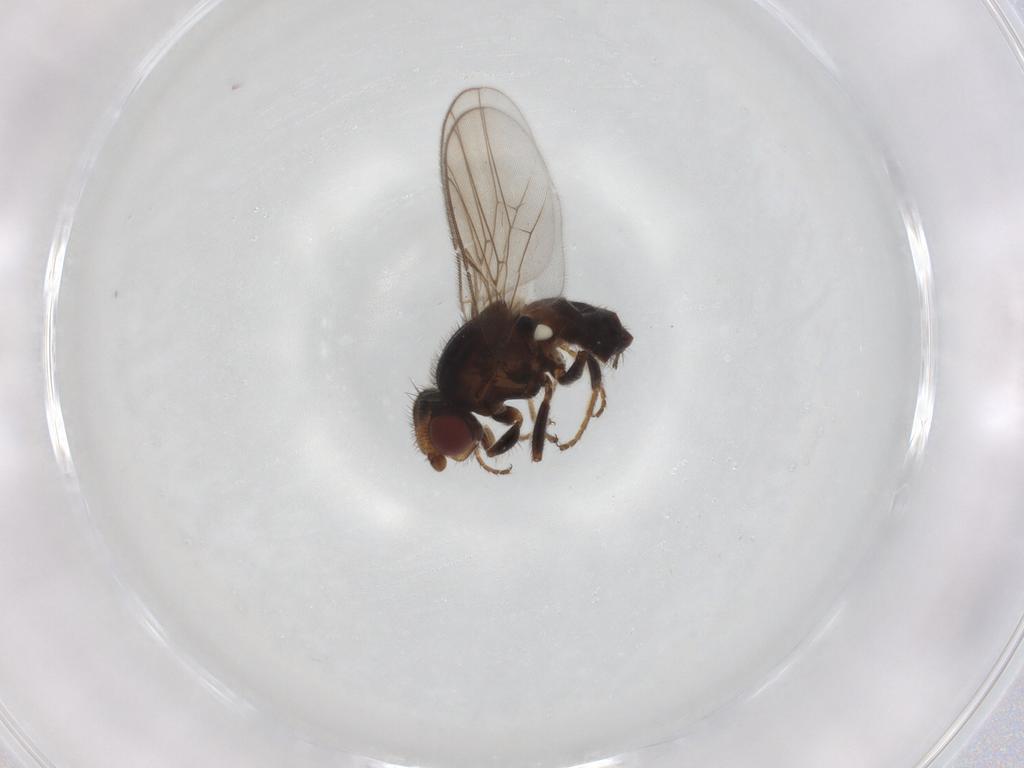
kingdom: Animalia
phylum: Arthropoda
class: Insecta
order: Diptera
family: Chloropidae
